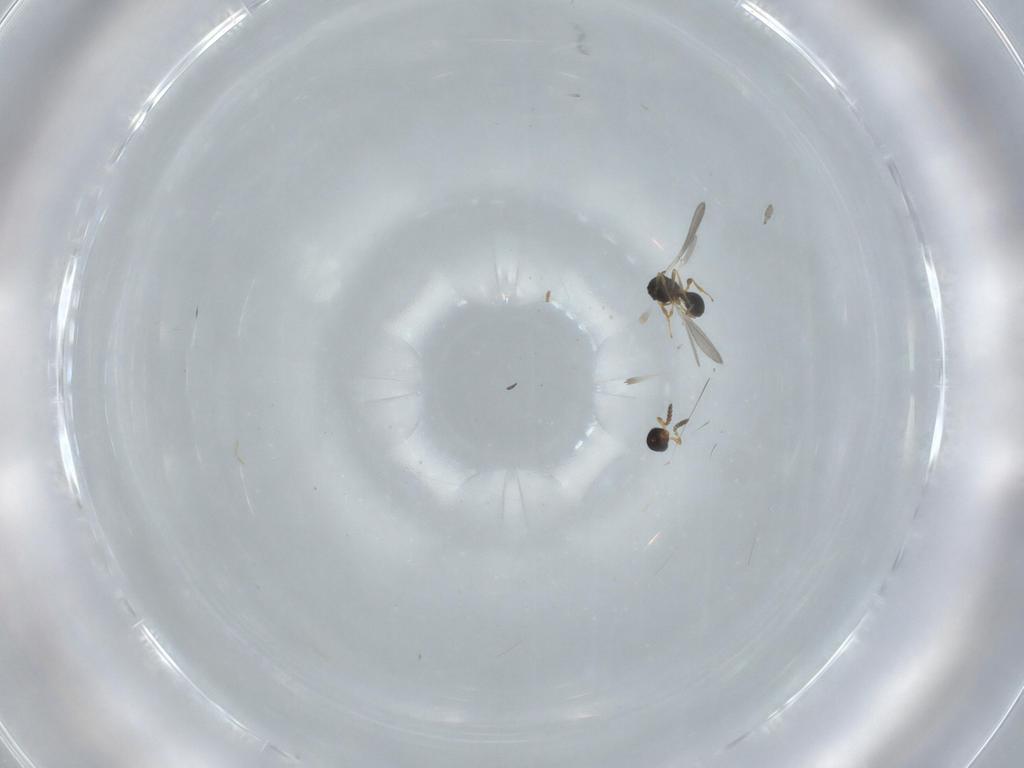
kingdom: Animalia
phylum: Arthropoda
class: Insecta
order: Hymenoptera
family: Platygastridae
